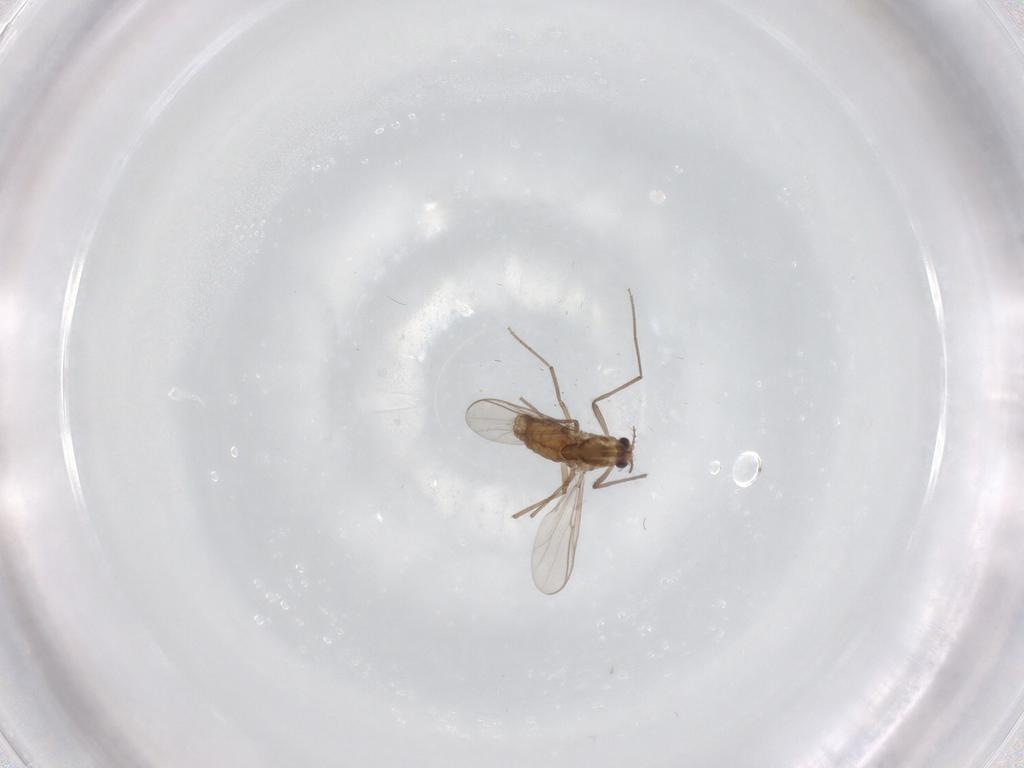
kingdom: Animalia
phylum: Arthropoda
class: Insecta
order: Diptera
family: Chironomidae
